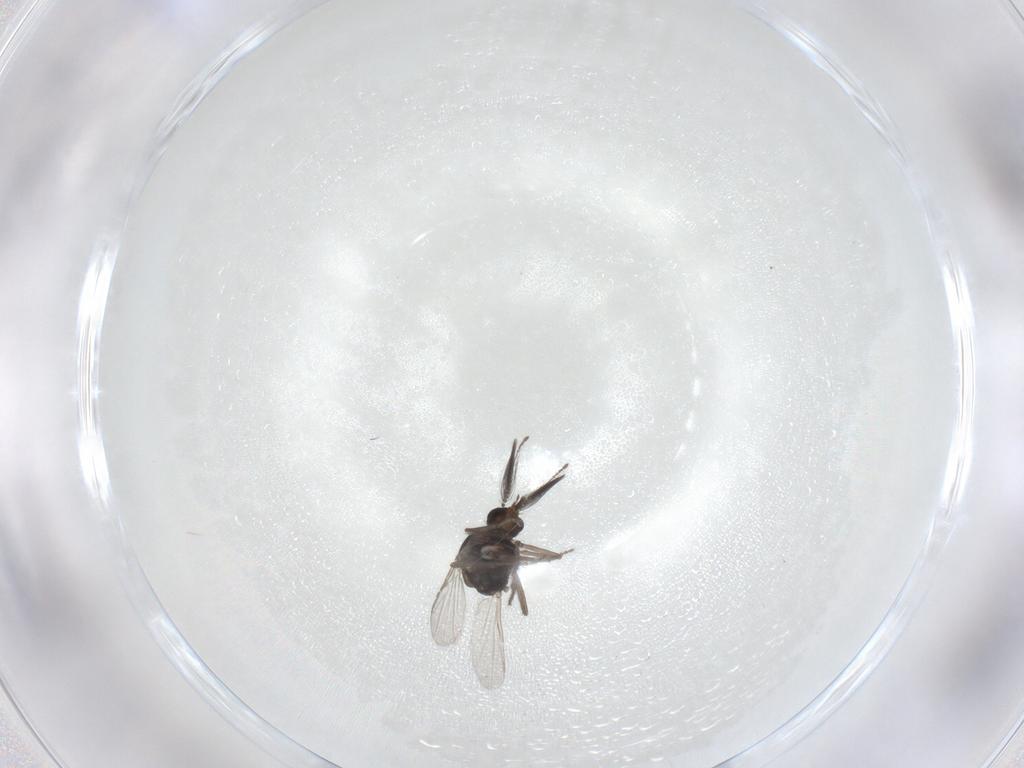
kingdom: Animalia
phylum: Arthropoda
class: Insecta
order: Diptera
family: Ceratopogonidae
